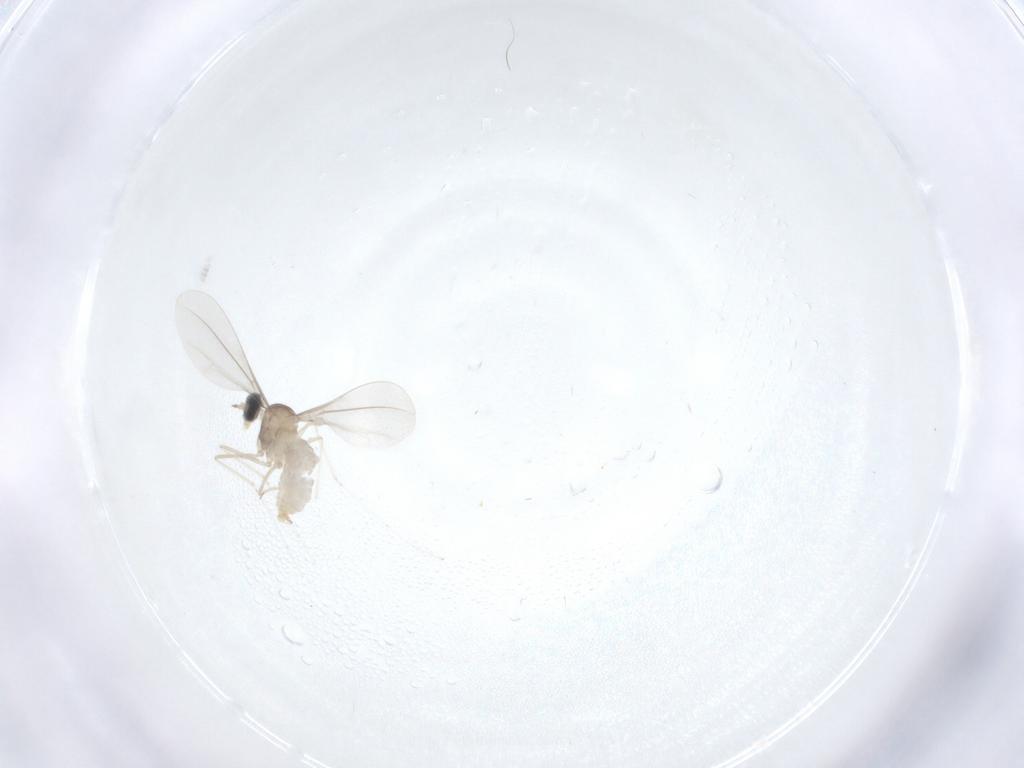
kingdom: Animalia
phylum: Arthropoda
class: Insecta
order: Diptera
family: Cecidomyiidae
